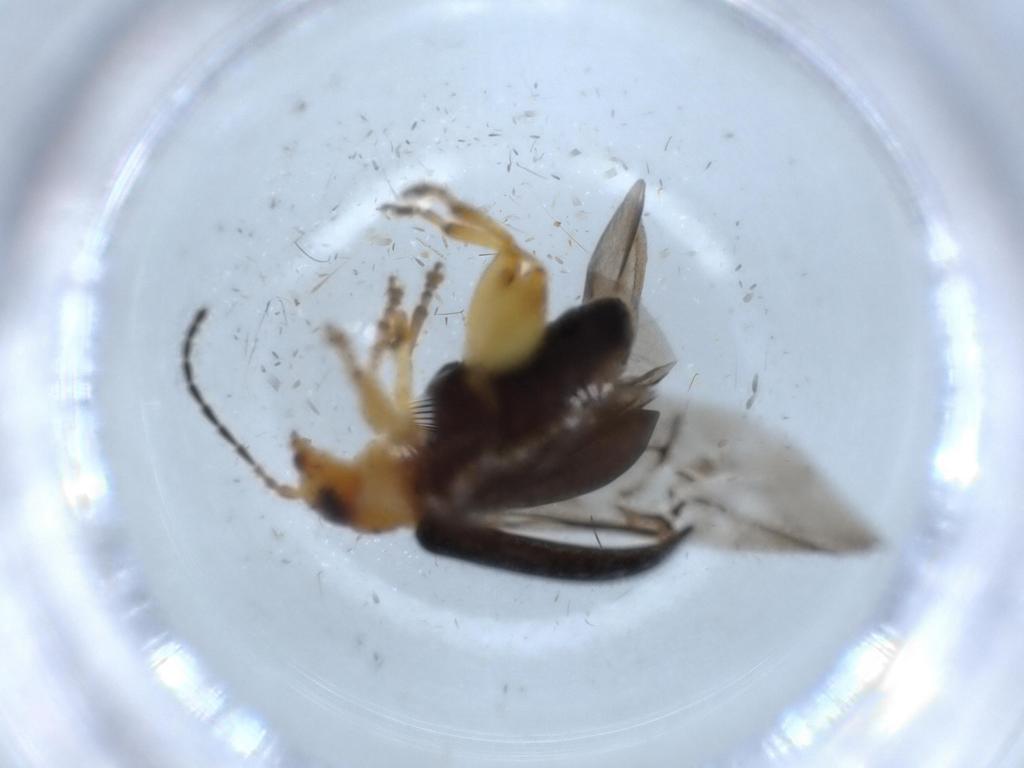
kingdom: Animalia
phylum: Arthropoda
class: Insecta
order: Coleoptera
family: Chrysomelidae
